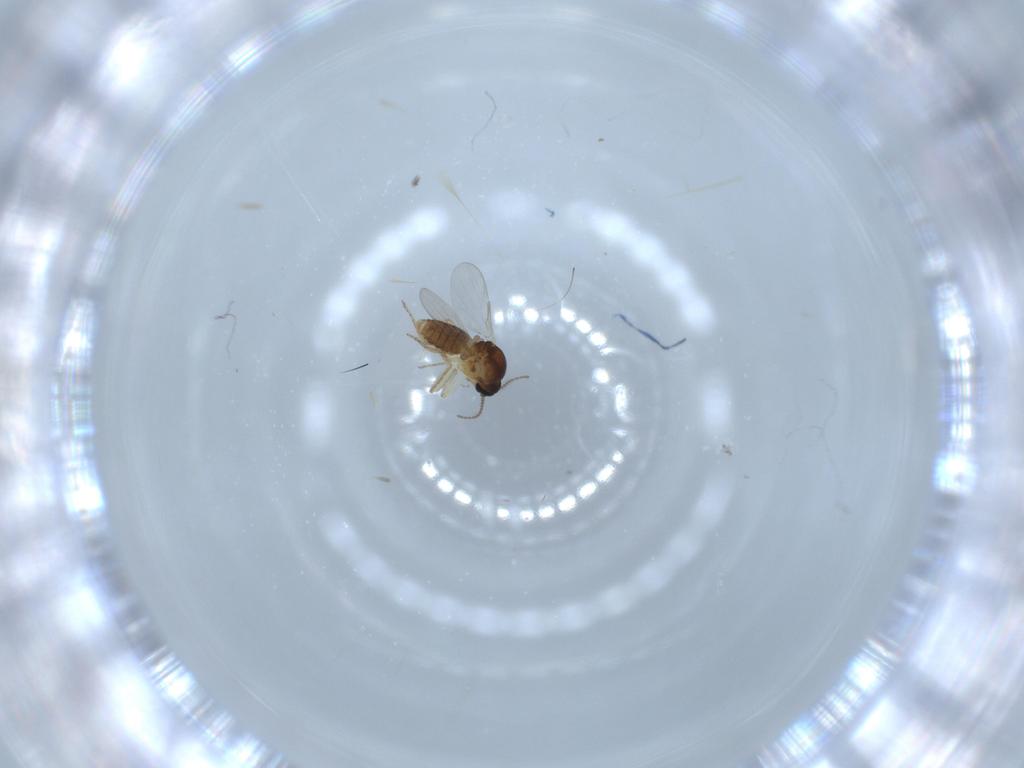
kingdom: Animalia
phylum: Arthropoda
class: Insecta
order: Diptera
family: Ceratopogonidae
